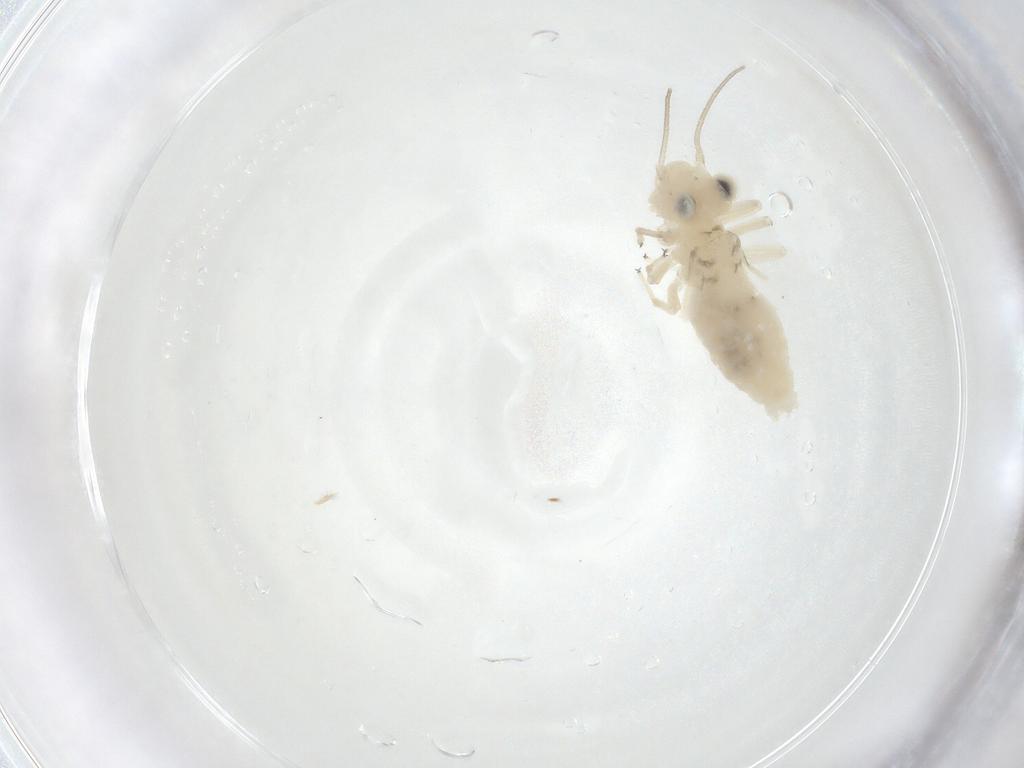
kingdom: Animalia
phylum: Arthropoda
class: Insecta
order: Psocodea
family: Caeciliusidae
